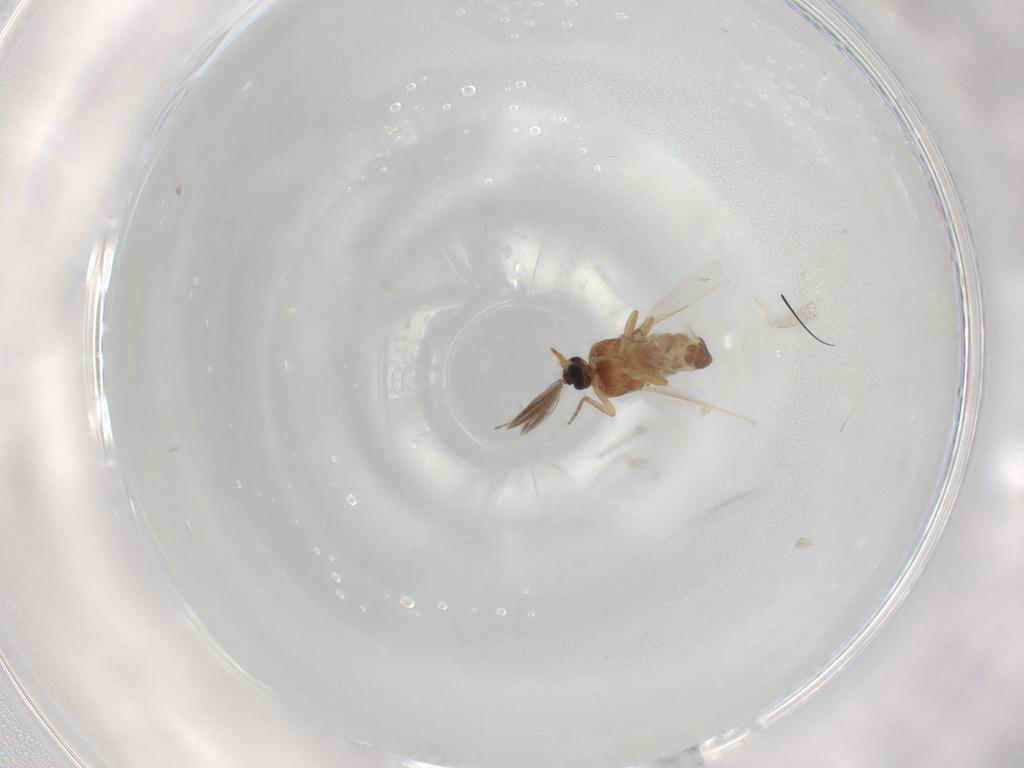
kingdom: Animalia
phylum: Arthropoda
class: Insecta
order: Diptera
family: Ceratopogonidae
